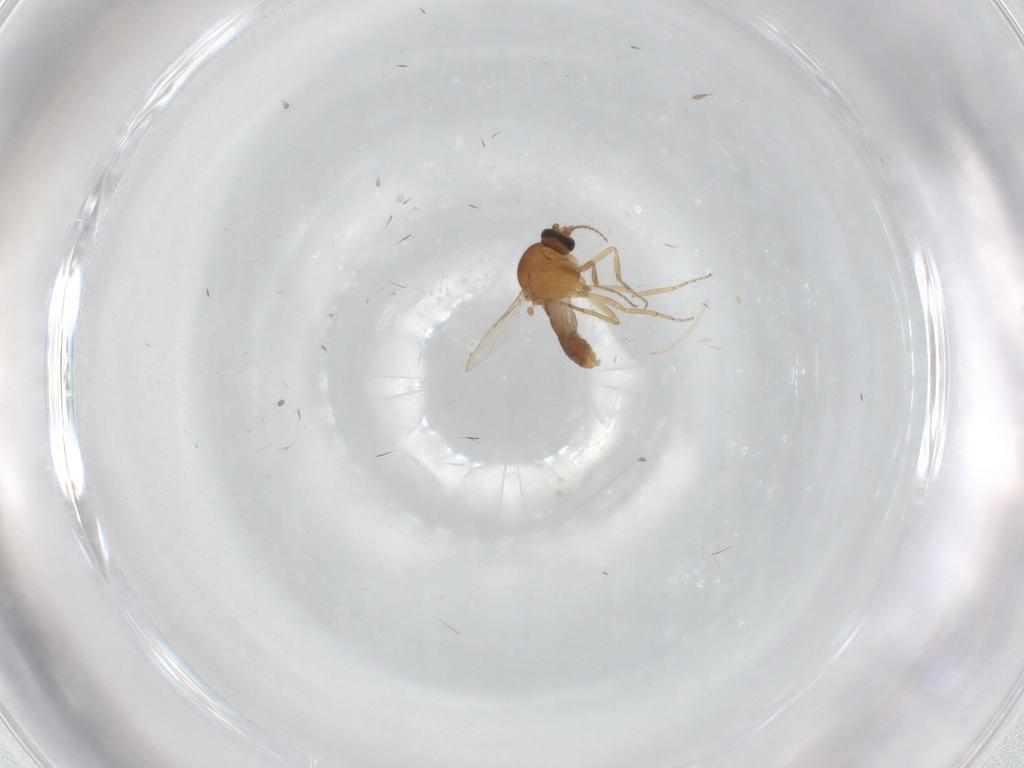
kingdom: Animalia
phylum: Arthropoda
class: Insecta
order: Diptera
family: Ceratopogonidae
